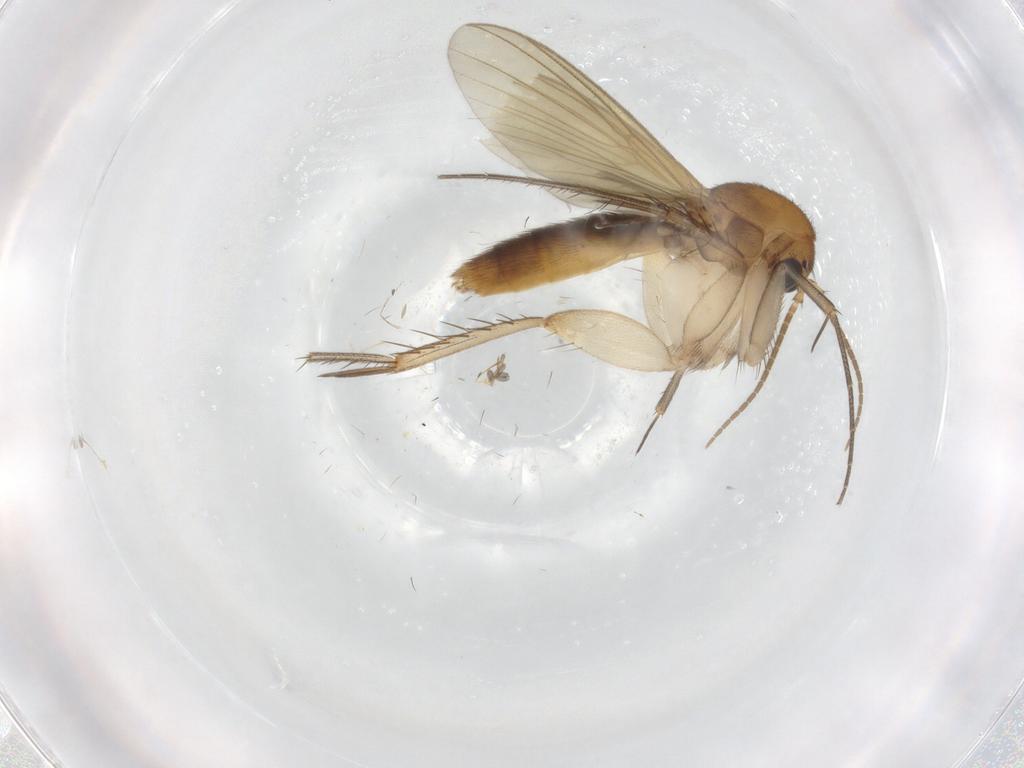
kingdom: Animalia
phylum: Arthropoda
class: Insecta
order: Diptera
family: Mycetophilidae
